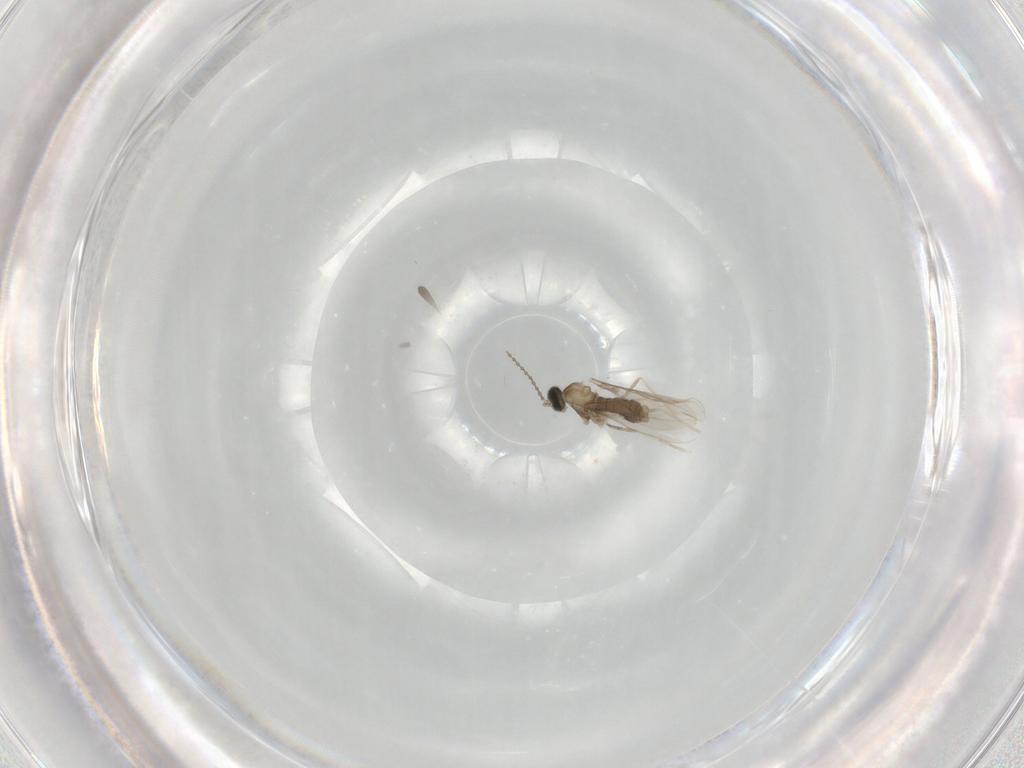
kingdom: Animalia
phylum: Arthropoda
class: Insecta
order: Diptera
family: Cecidomyiidae
